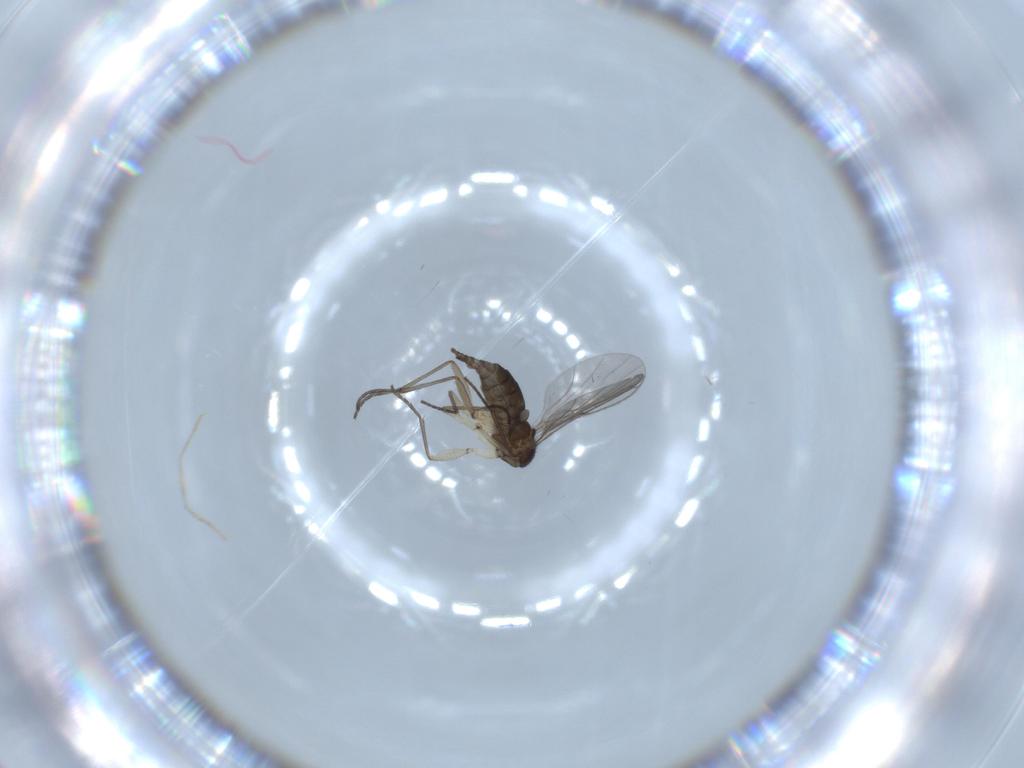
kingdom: Animalia
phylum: Arthropoda
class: Insecta
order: Diptera
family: Sciaridae
